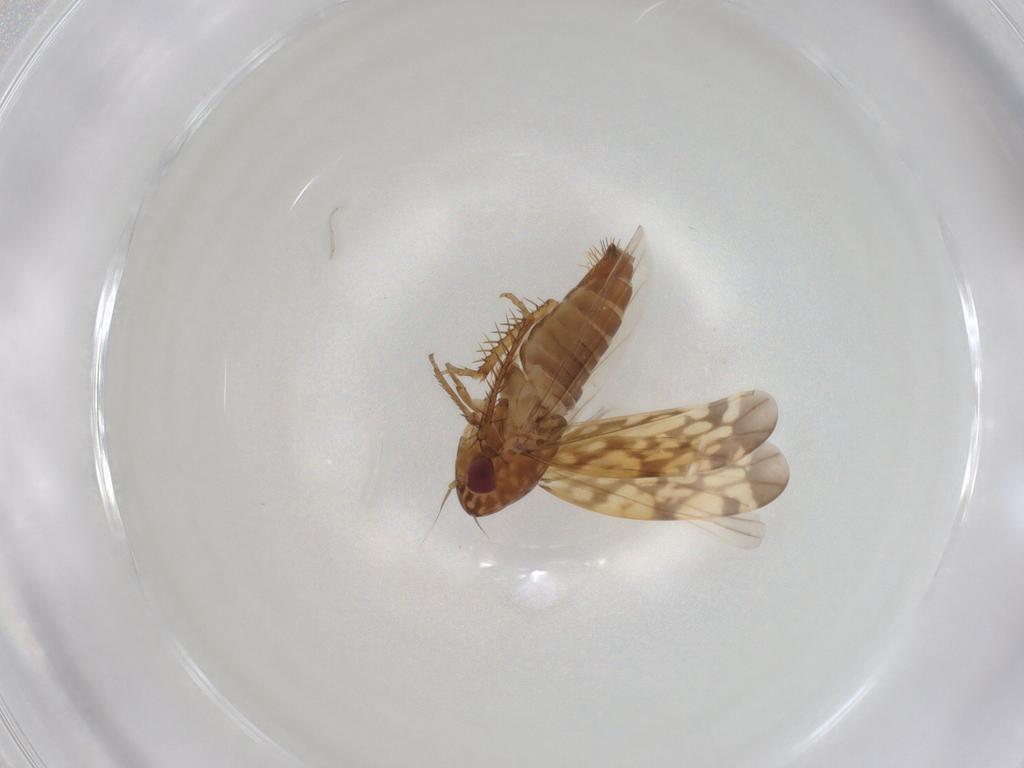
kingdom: Animalia
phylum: Arthropoda
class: Insecta
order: Hemiptera
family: Cicadellidae
